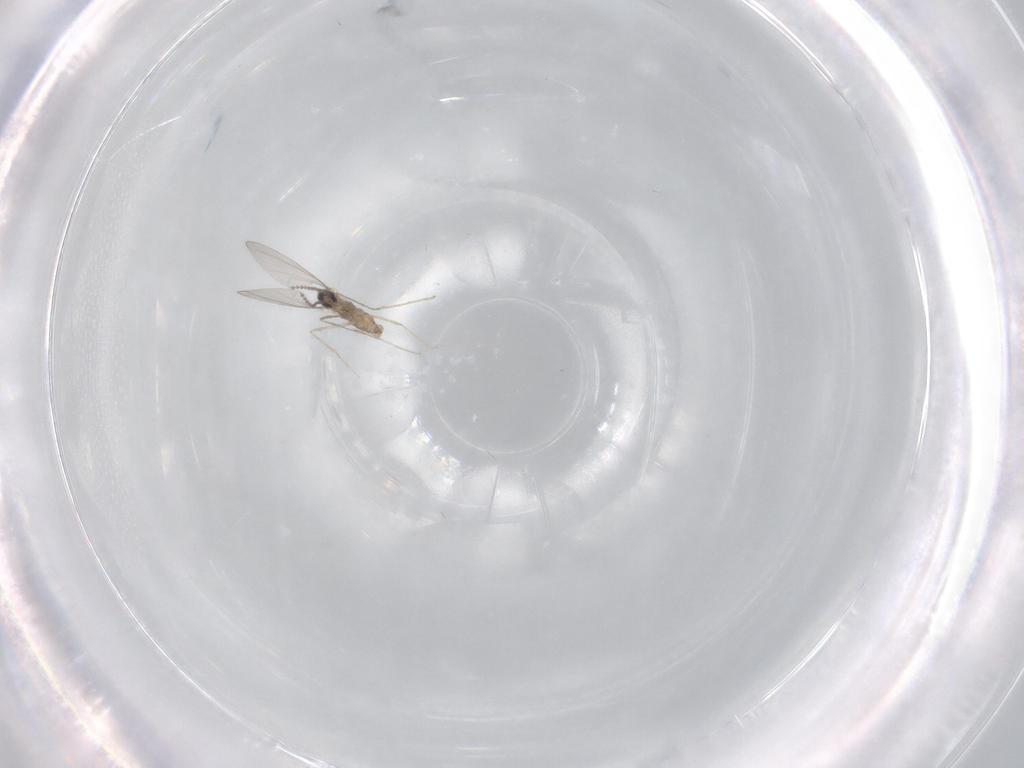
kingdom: Animalia
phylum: Arthropoda
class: Insecta
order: Diptera
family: Cecidomyiidae
